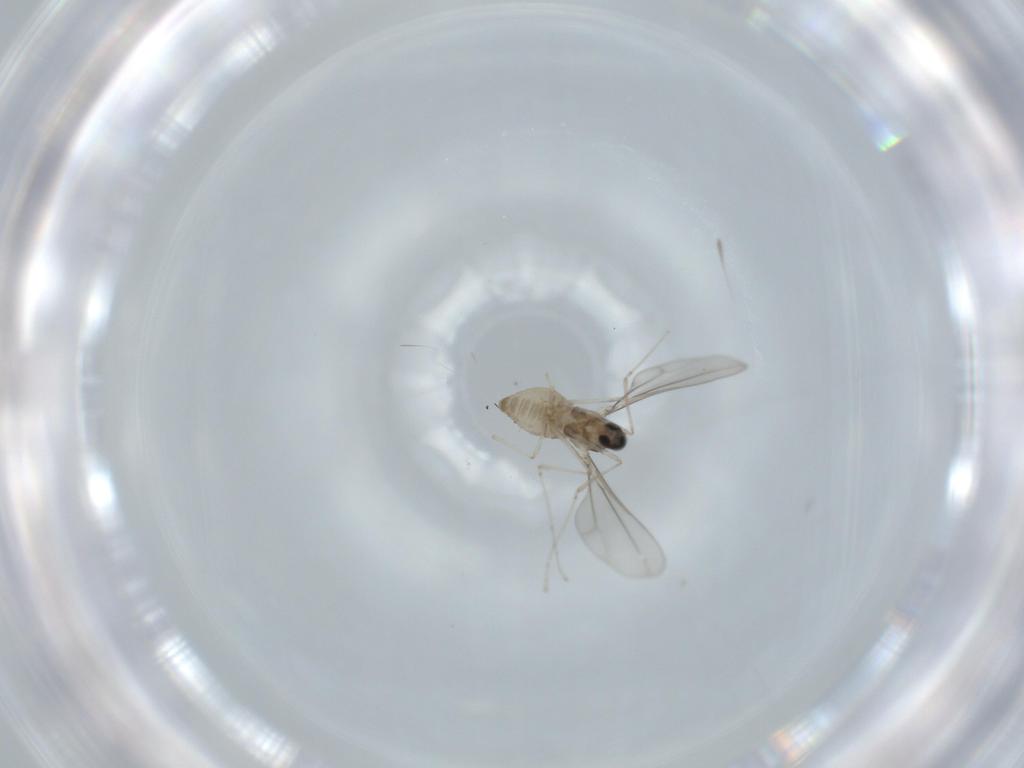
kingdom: Animalia
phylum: Arthropoda
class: Insecta
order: Diptera
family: Cecidomyiidae
